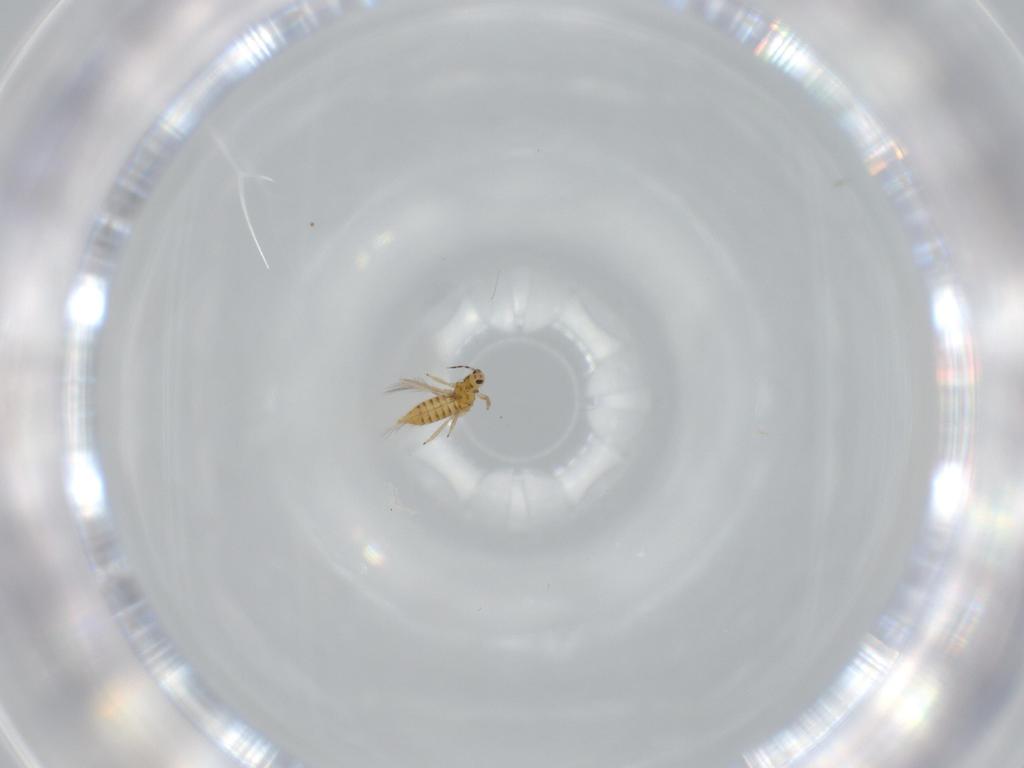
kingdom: Animalia
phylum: Arthropoda
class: Insecta
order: Thysanoptera
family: Thripidae
